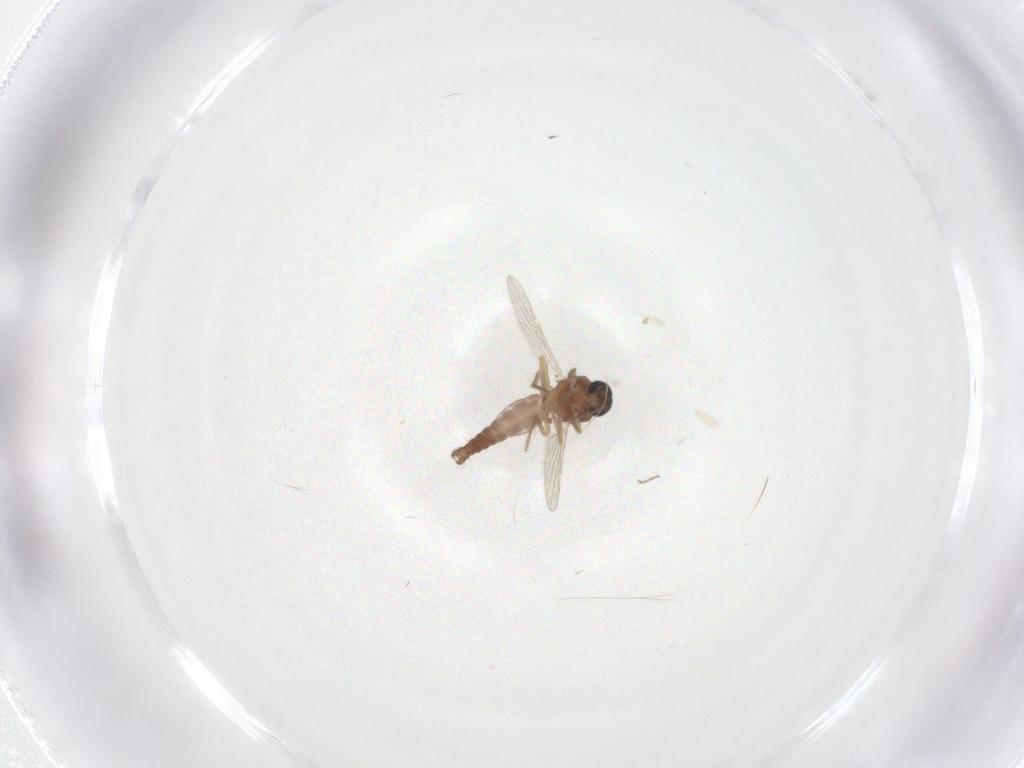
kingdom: Animalia
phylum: Arthropoda
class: Insecta
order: Diptera
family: Ceratopogonidae
